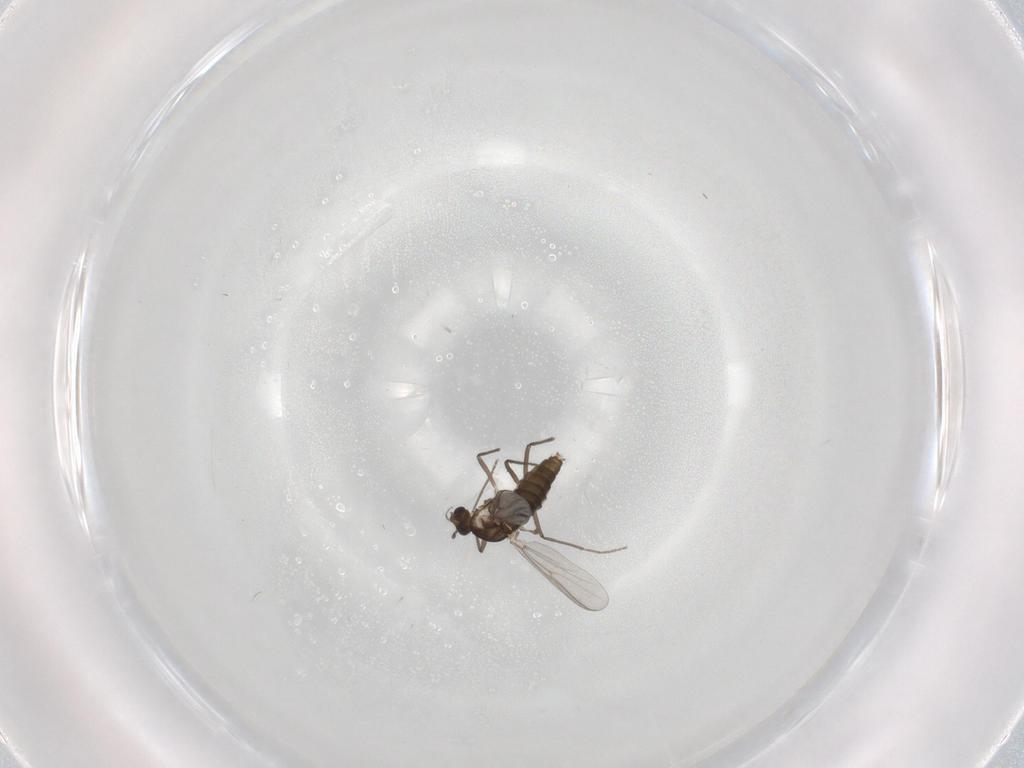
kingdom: Animalia
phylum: Arthropoda
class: Insecta
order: Diptera
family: Chironomidae
